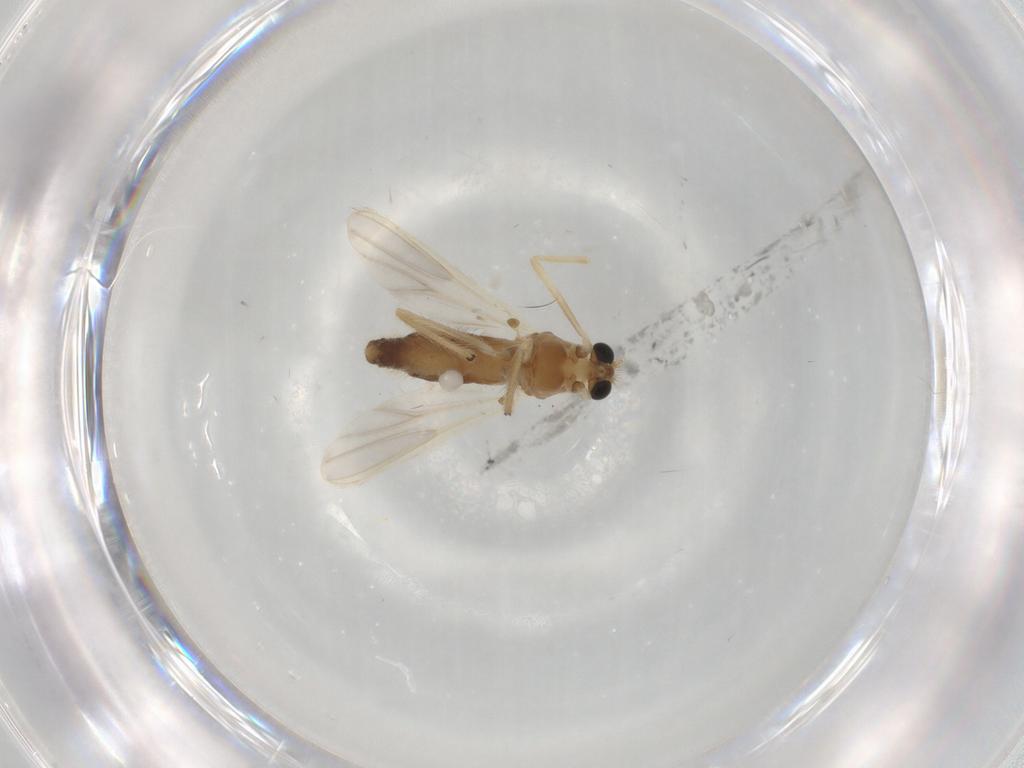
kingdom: Animalia
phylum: Arthropoda
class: Insecta
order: Diptera
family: Chironomidae
